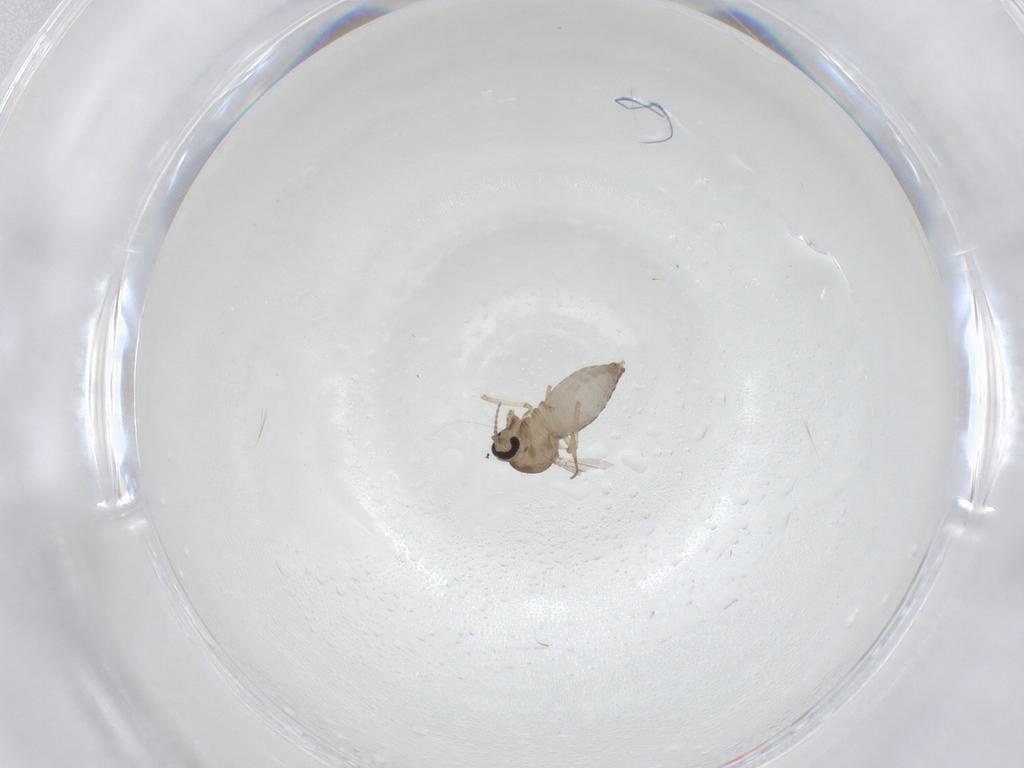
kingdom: Animalia
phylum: Arthropoda
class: Insecta
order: Diptera
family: Ceratopogonidae
